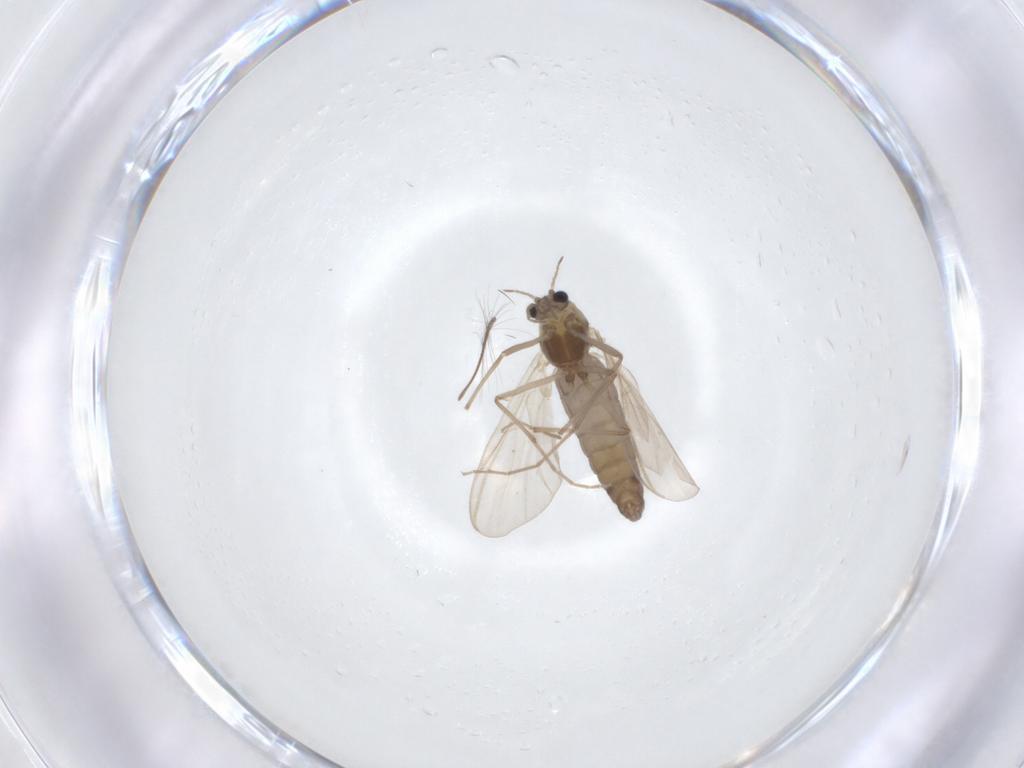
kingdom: Animalia
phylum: Arthropoda
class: Insecta
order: Diptera
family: Chironomidae
